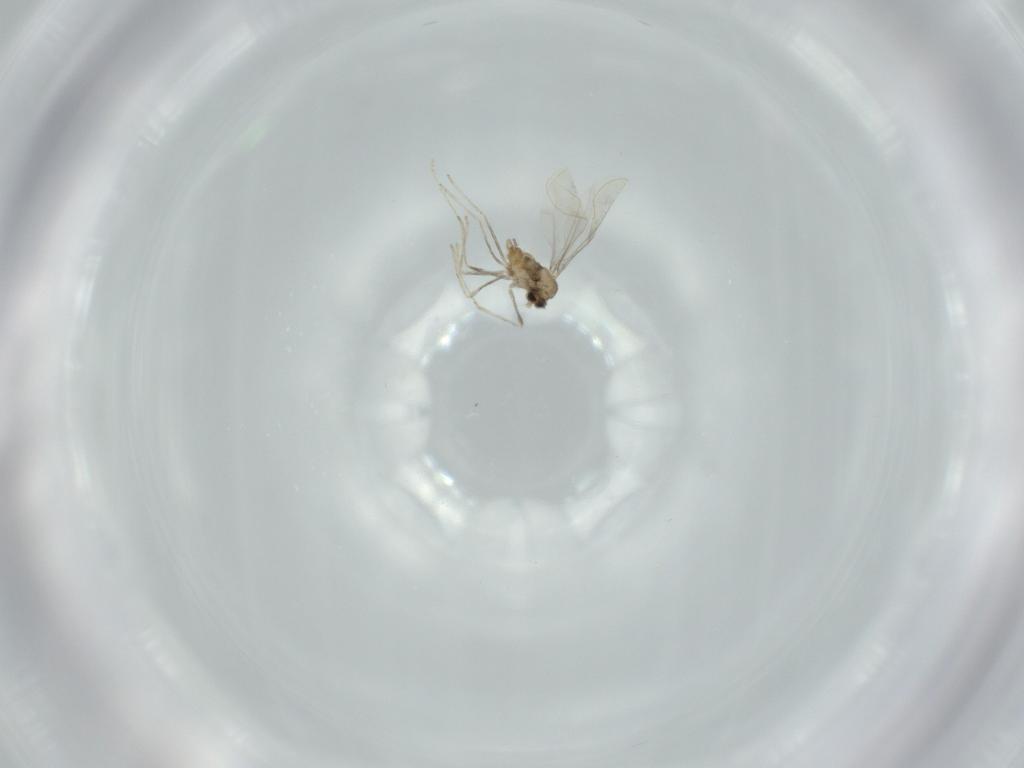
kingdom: Animalia
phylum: Arthropoda
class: Insecta
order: Diptera
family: Cecidomyiidae
